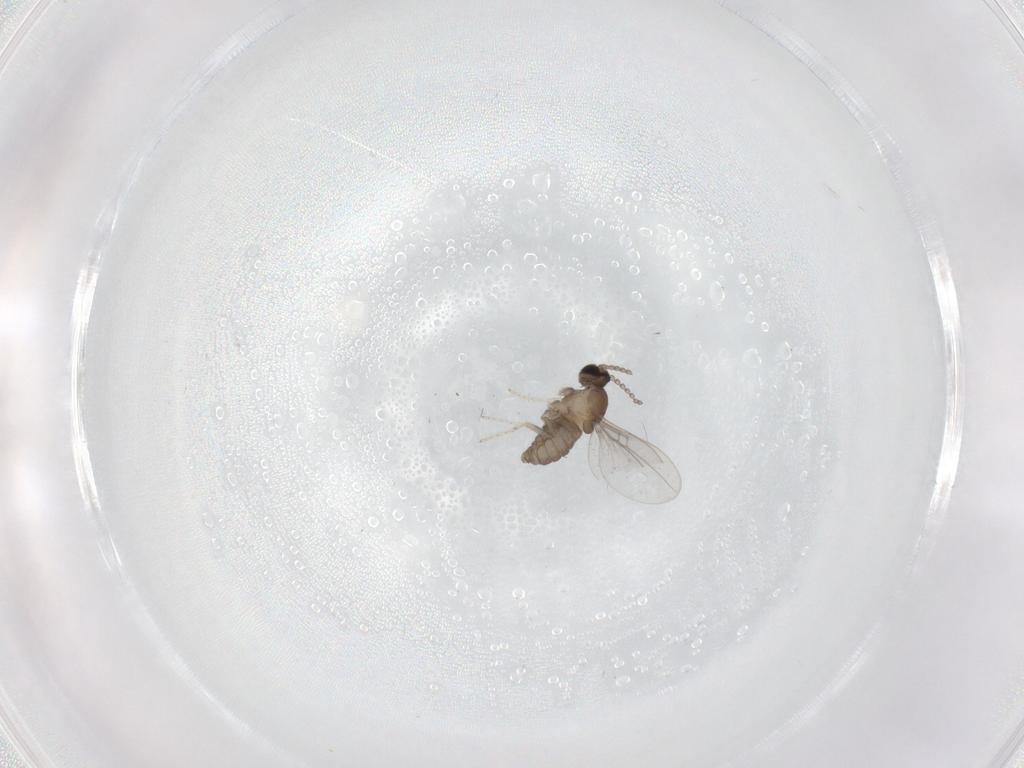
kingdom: Animalia
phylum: Arthropoda
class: Insecta
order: Diptera
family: Cecidomyiidae
